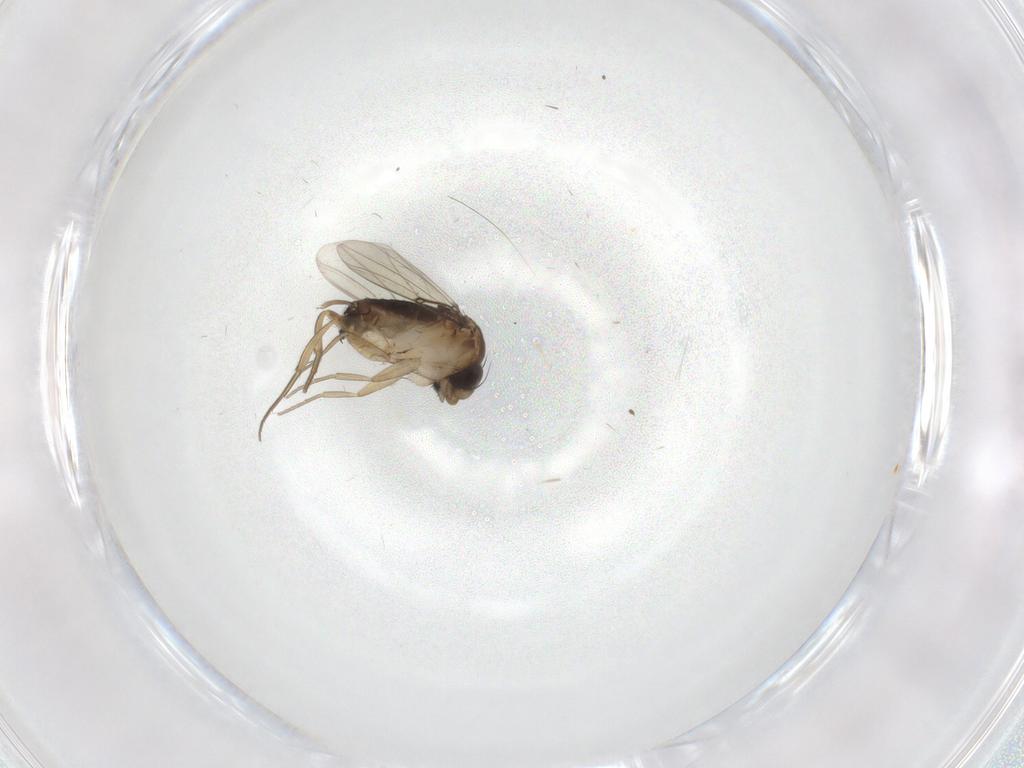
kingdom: Animalia
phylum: Arthropoda
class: Insecta
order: Diptera
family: Phoridae
